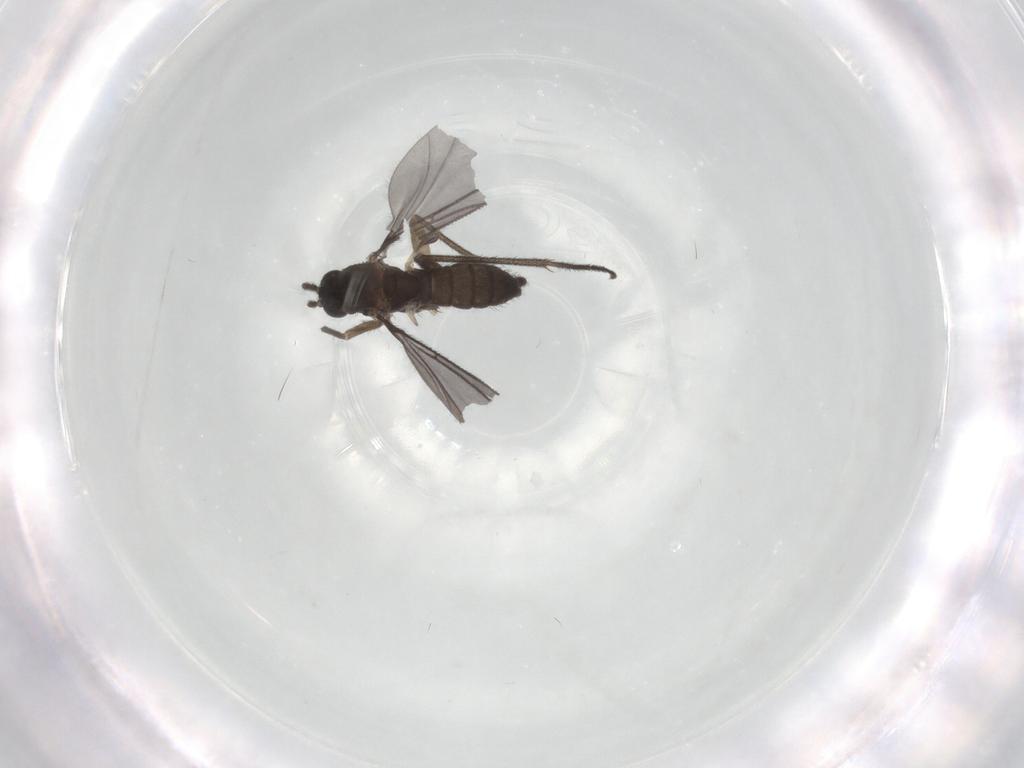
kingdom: Animalia
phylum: Arthropoda
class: Insecta
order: Diptera
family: Sciaridae
